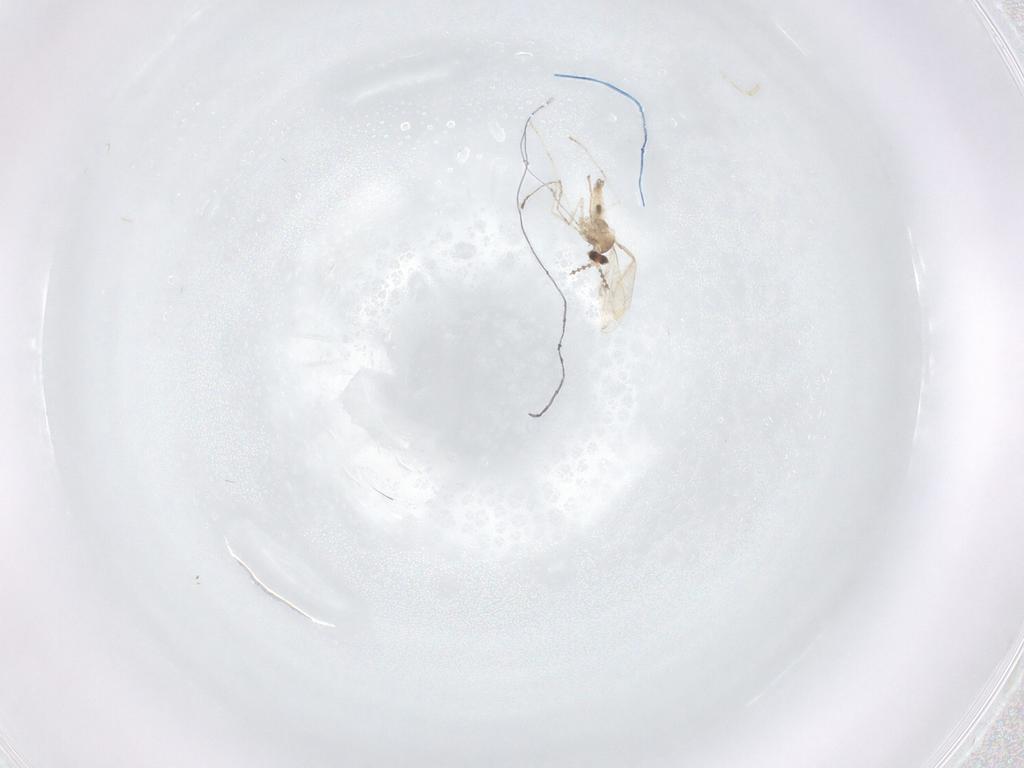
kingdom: Animalia
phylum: Arthropoda
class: Insecta
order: Diptera
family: Cecidomyiidae
